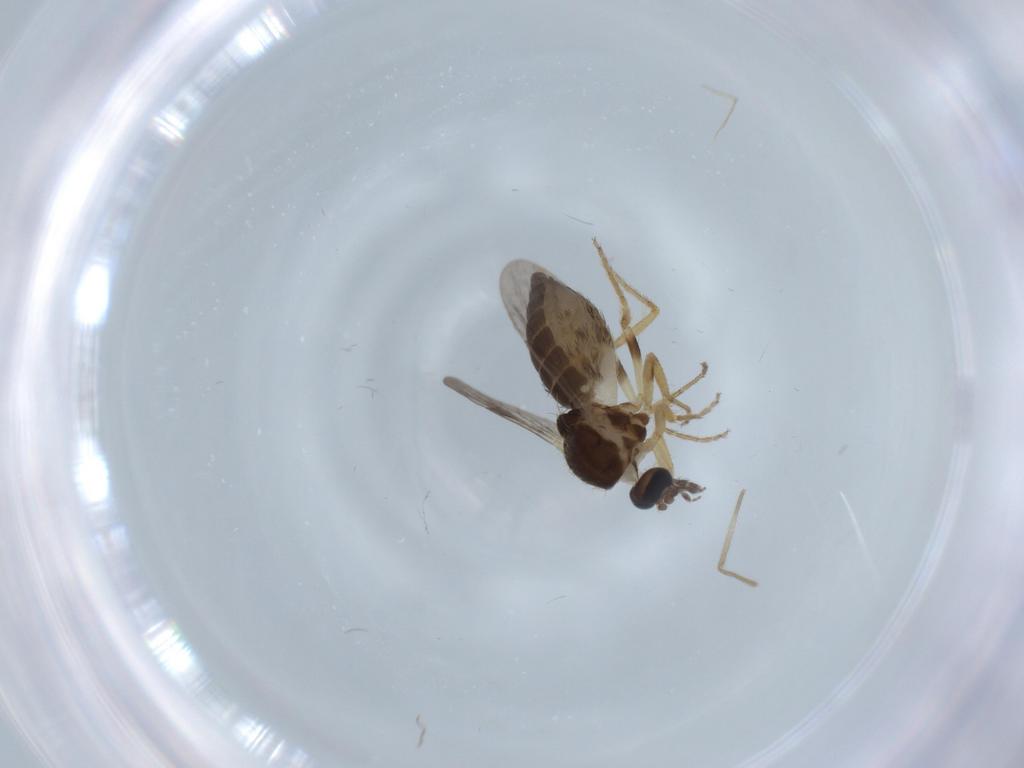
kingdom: Animalia
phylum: Arthropoda
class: Insecta
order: Diptera
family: Ceratopogonidae
